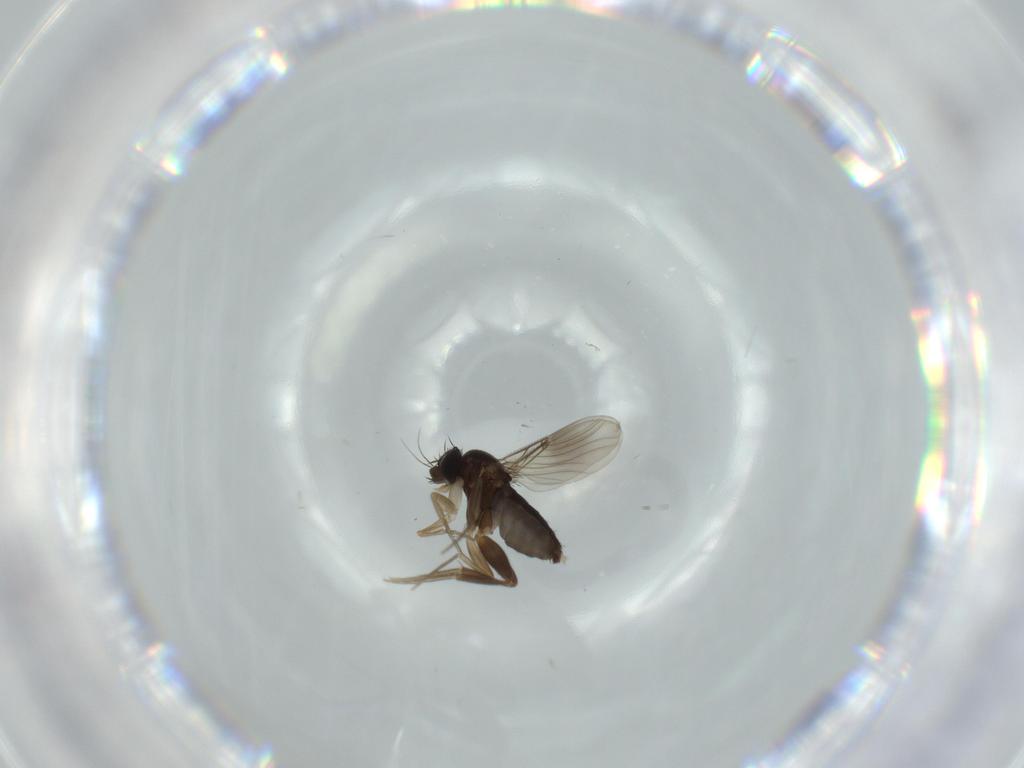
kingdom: Animalia
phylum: Arthropoda
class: Insecta
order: Diptera
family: Phoridae
